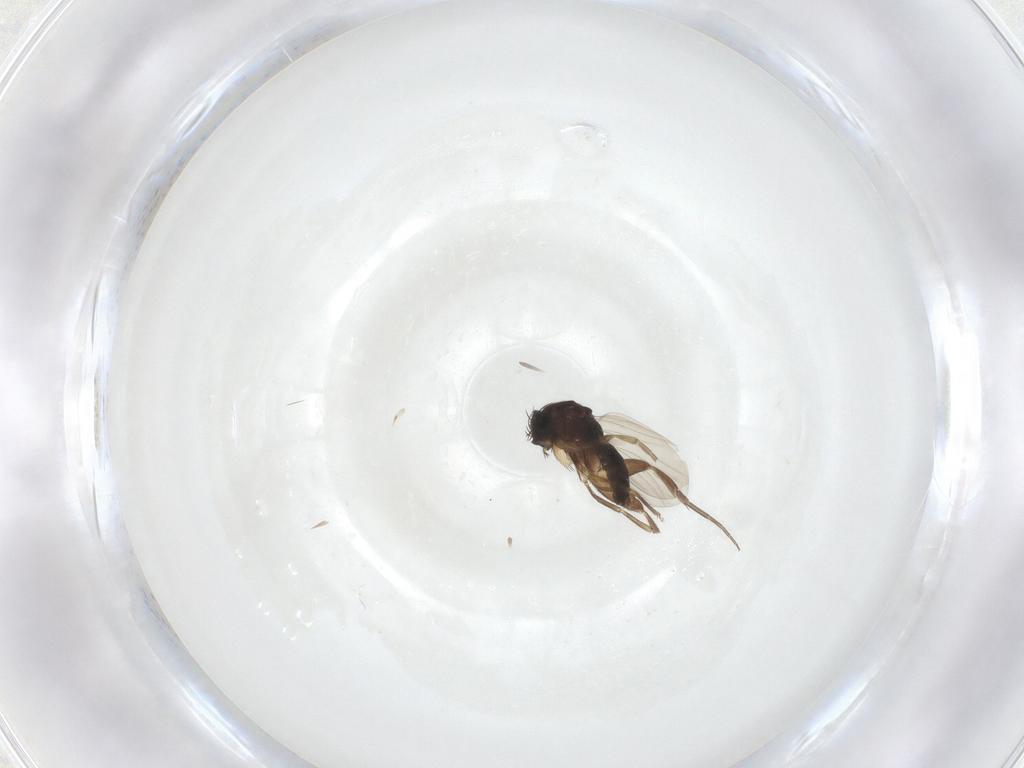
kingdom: Animalia
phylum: Arthropoda
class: Insecta
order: Diptera
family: Phoridae
